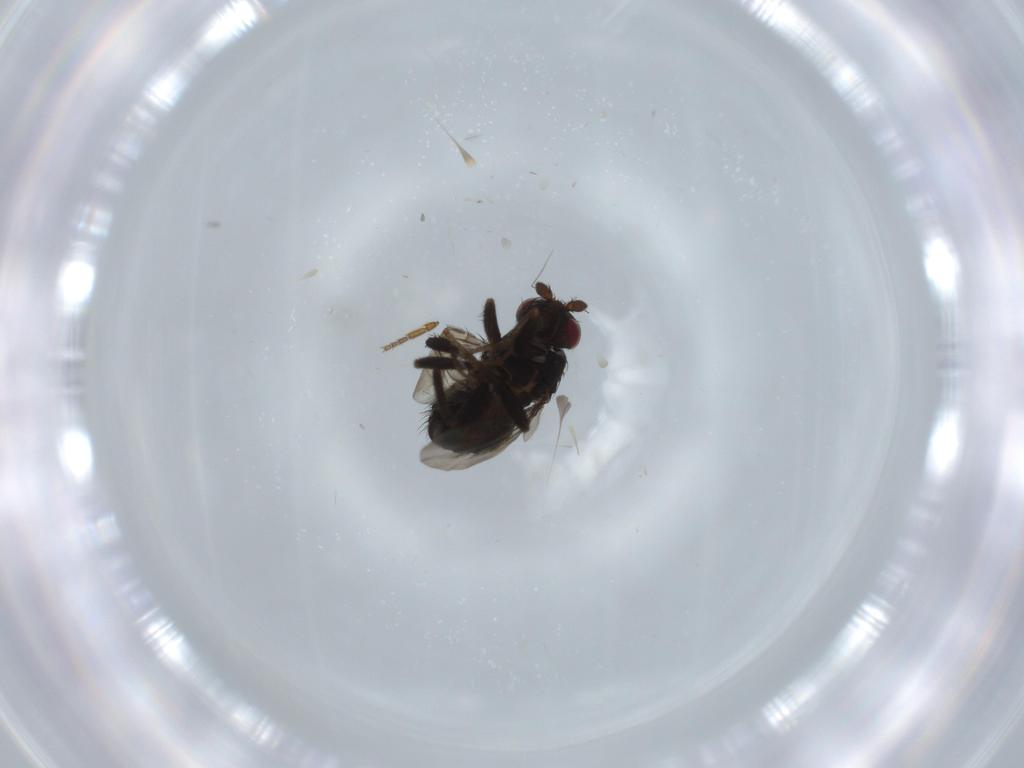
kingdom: Animalia
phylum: Arthropoda
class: Insecta
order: Diptera
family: Sphaeroceridae
